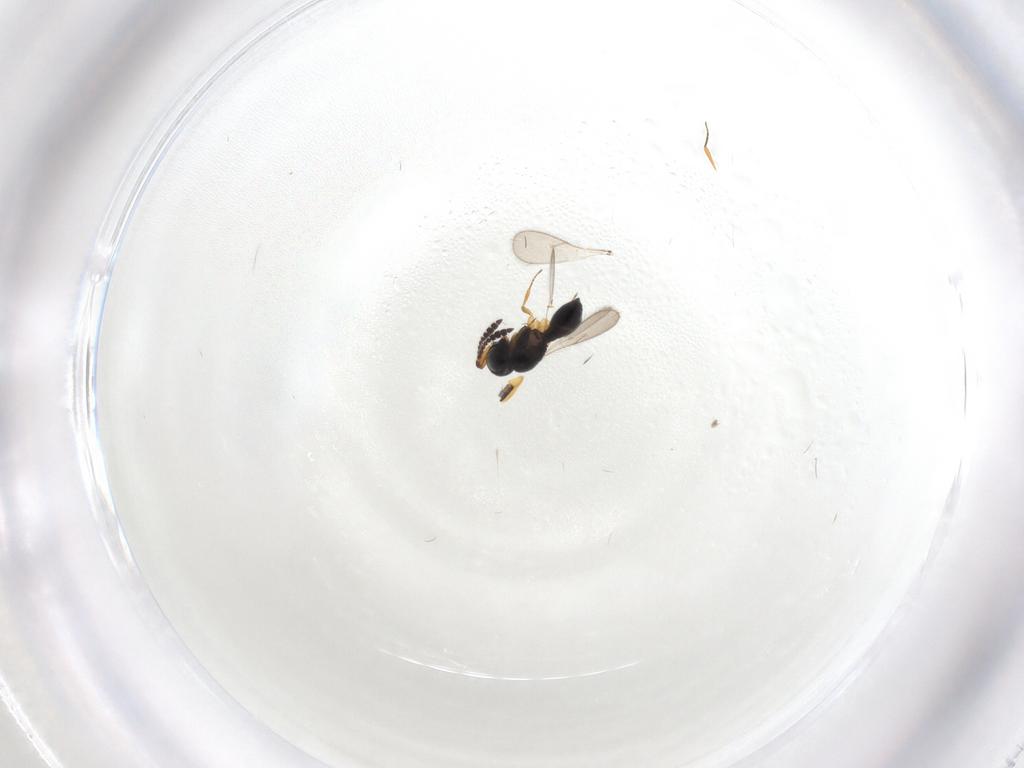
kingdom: Animalia
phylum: Arthropoda
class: Insecta
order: Hymenoptera
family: Scelionidae
